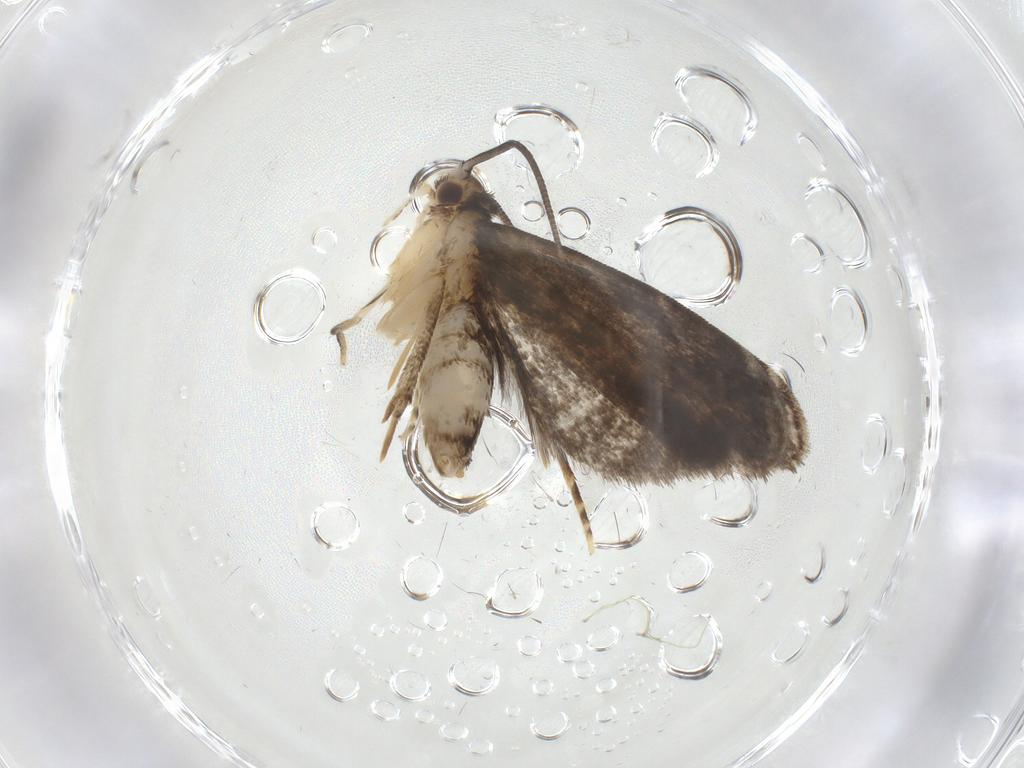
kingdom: Animalia
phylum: Arthropoda
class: Insecta
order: Lepidoptera
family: Dryadaulidae
